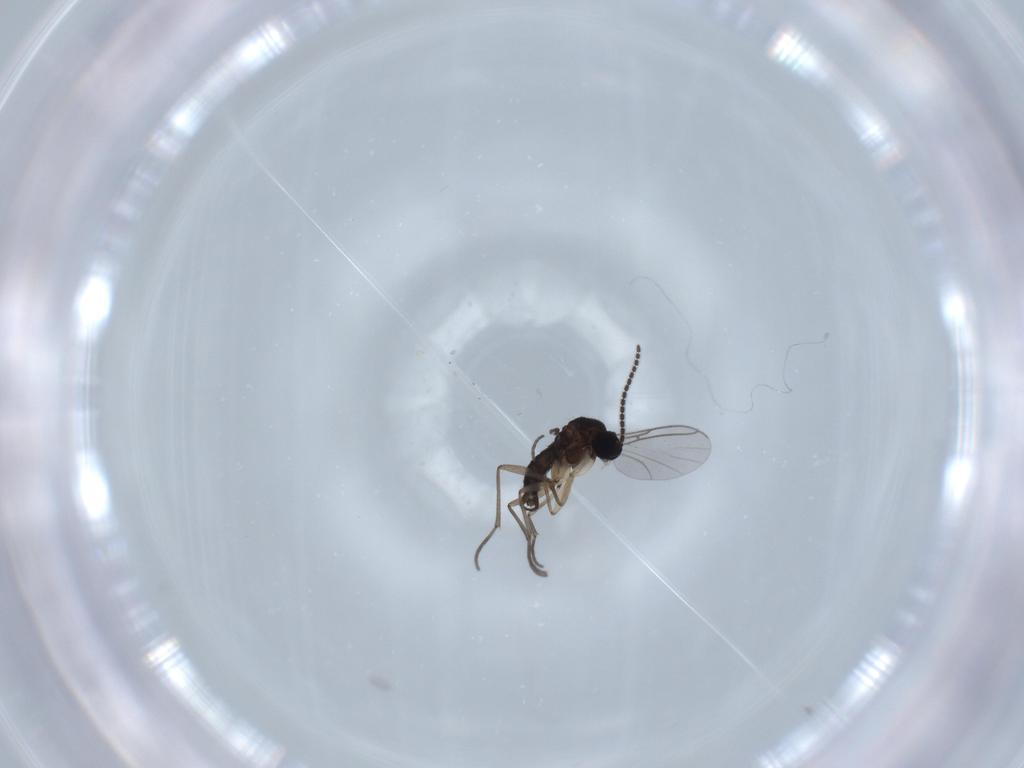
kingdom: Animalia
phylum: Arthropoda
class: Insecta
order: Diptera
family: Sciaridae
